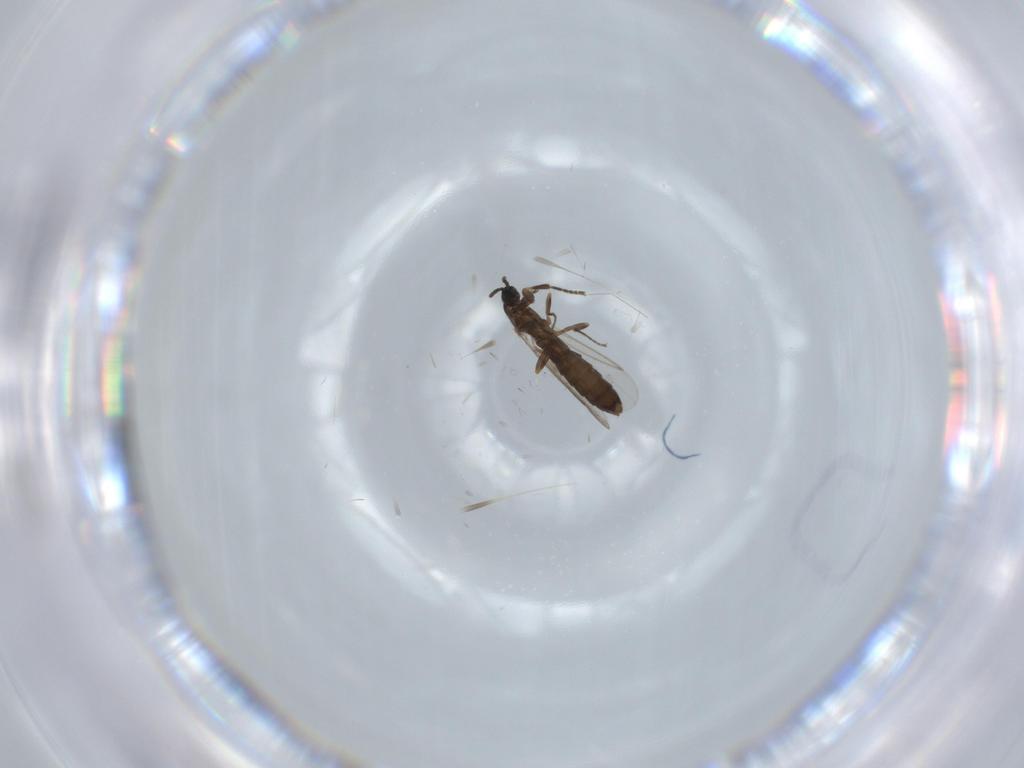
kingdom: Animalia
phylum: Arthropoda
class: Insecta
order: Diptera
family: Scatopsidae
